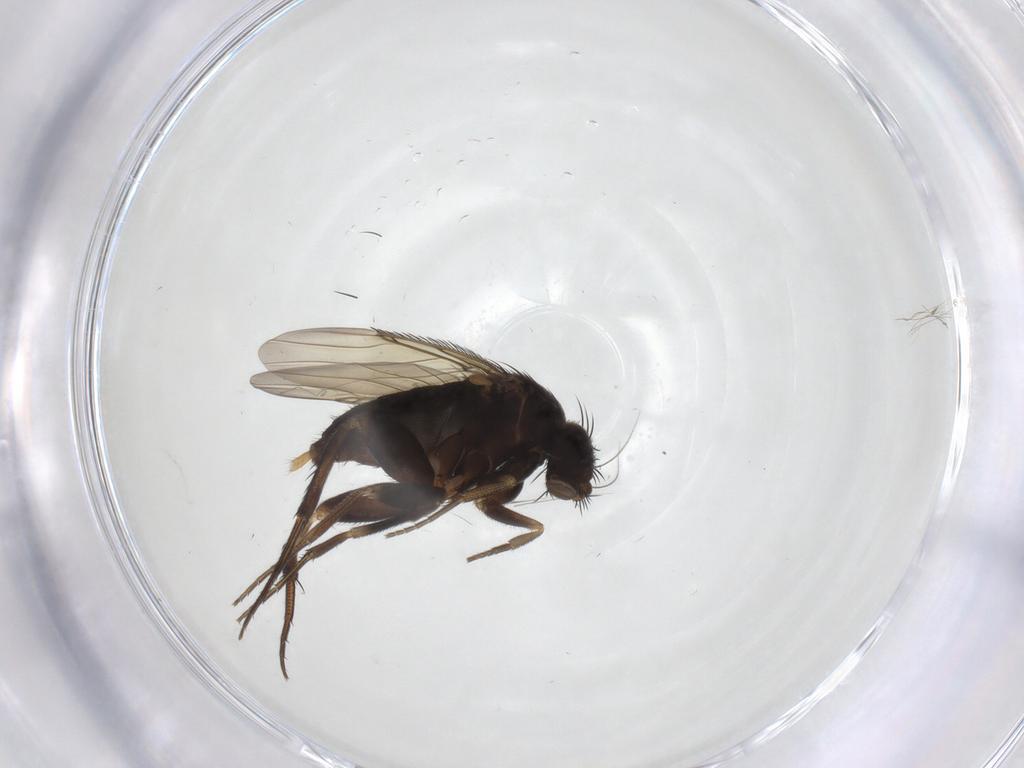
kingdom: Animalia
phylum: Arthropoda
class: Insecta
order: Diptera
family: Phoridae
